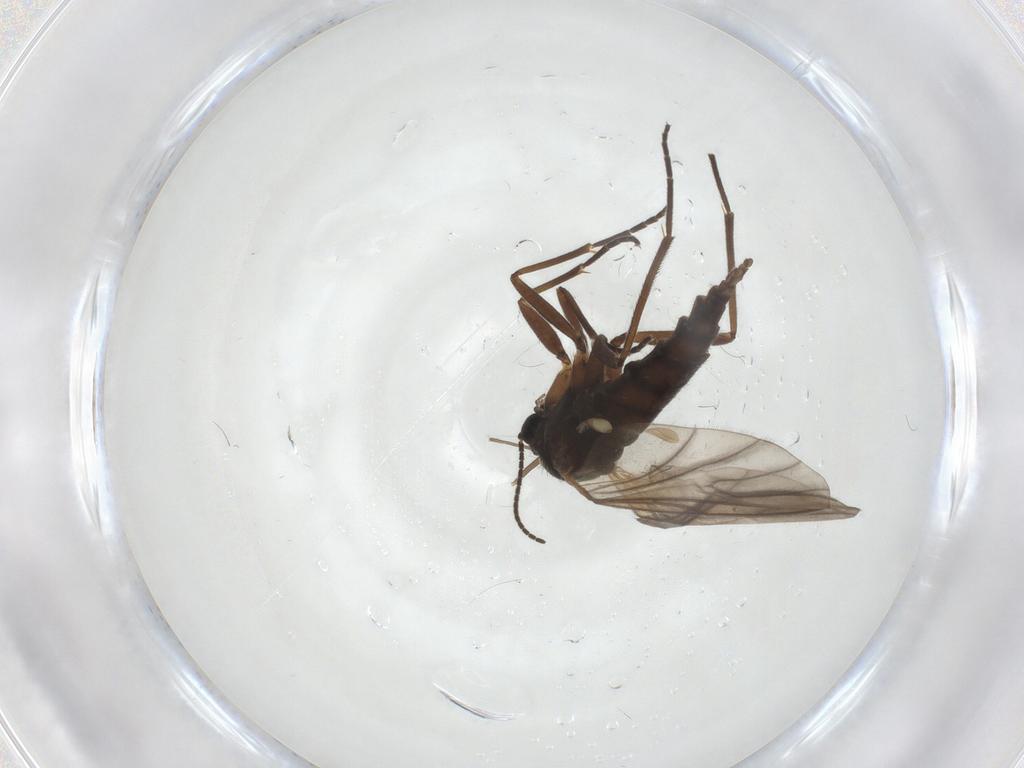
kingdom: Animalia
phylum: Arthropoda
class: Insecta
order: Diptera
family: Sciaridae
